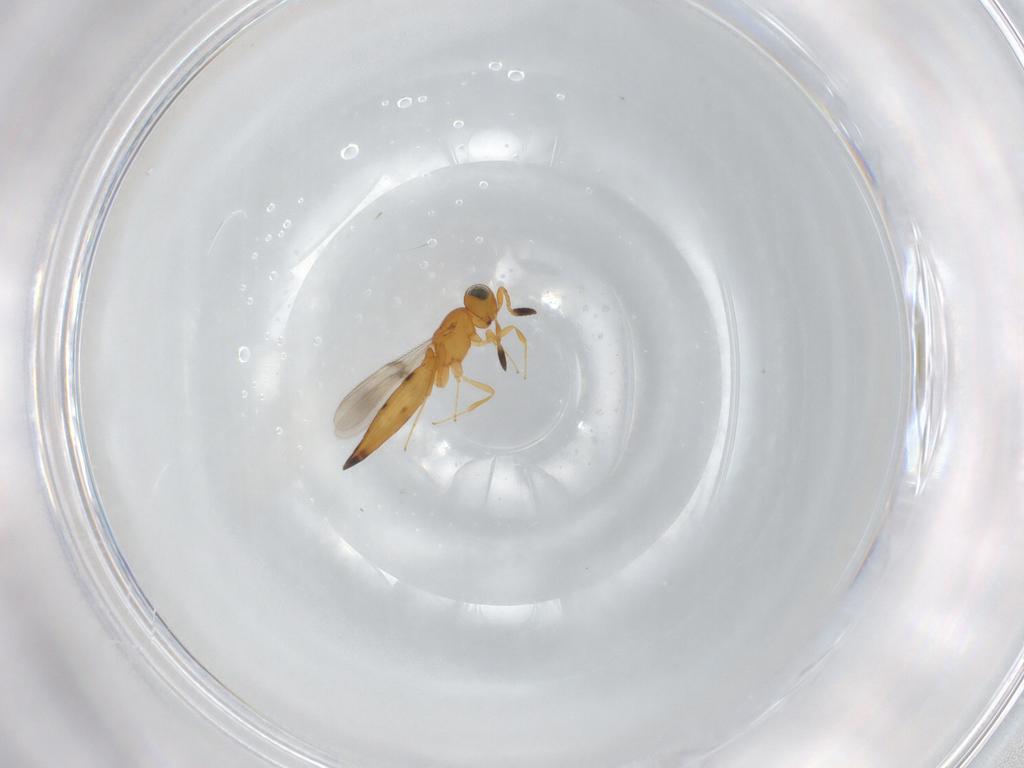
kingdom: Animalia
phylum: Arthropoda
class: Insecta
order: Hymenoptera
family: Scelionidae
